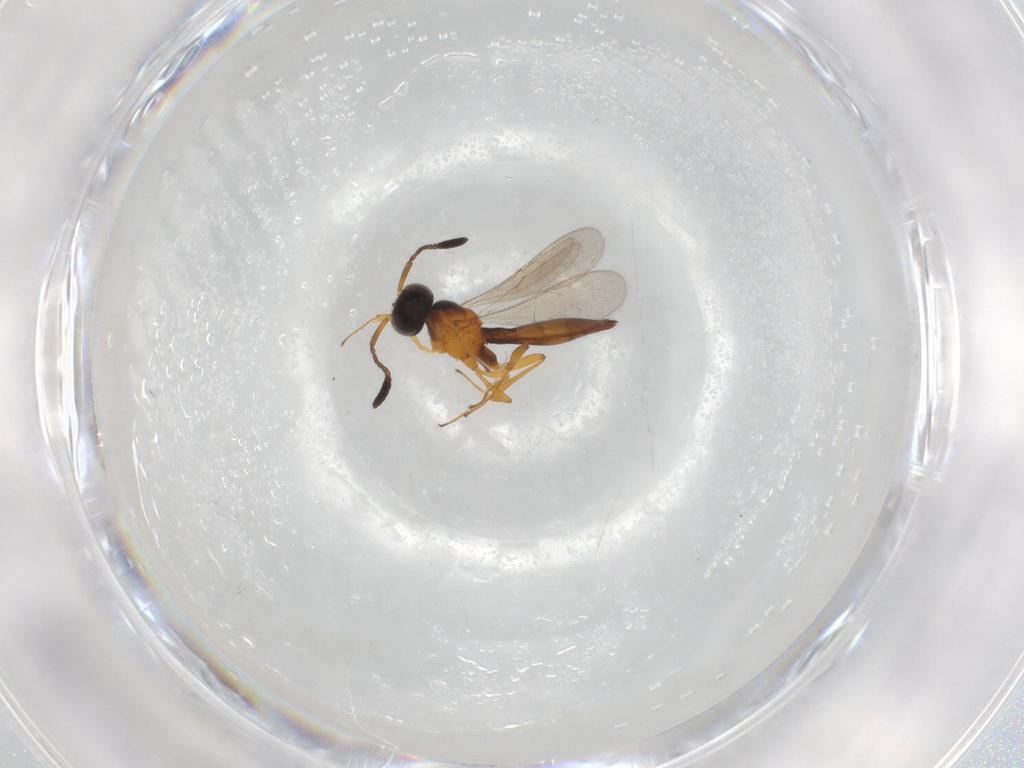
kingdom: Animalia
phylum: Arthropoda
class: Insecta
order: Hymenoptera
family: Scelionidae
